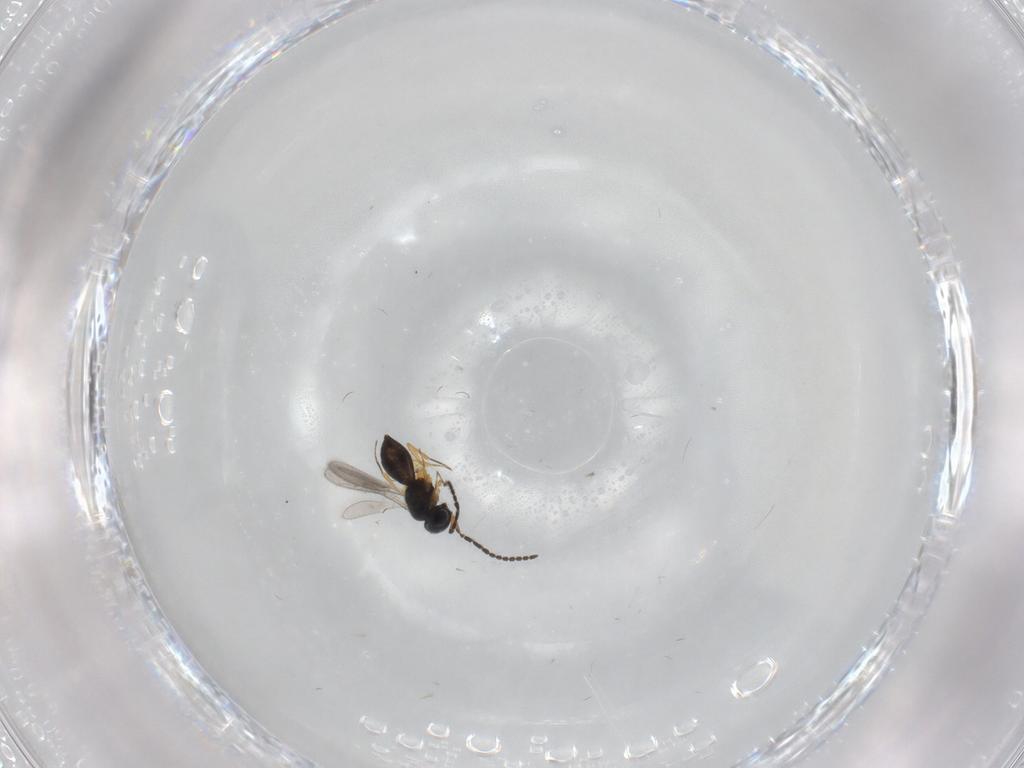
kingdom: Animalia
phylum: Arthropoda
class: Insecta
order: Hymenoptera
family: Scelionidae
